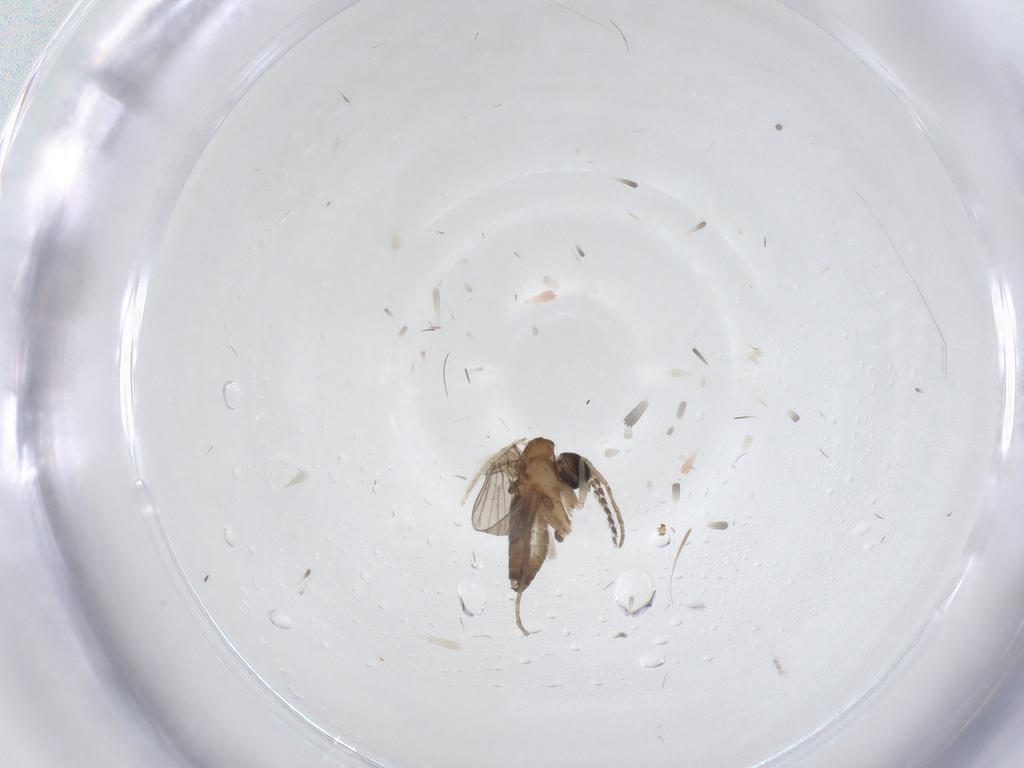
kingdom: Animalia
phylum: Arthropoda
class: Insecta
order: Diptera
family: Chironomidae
